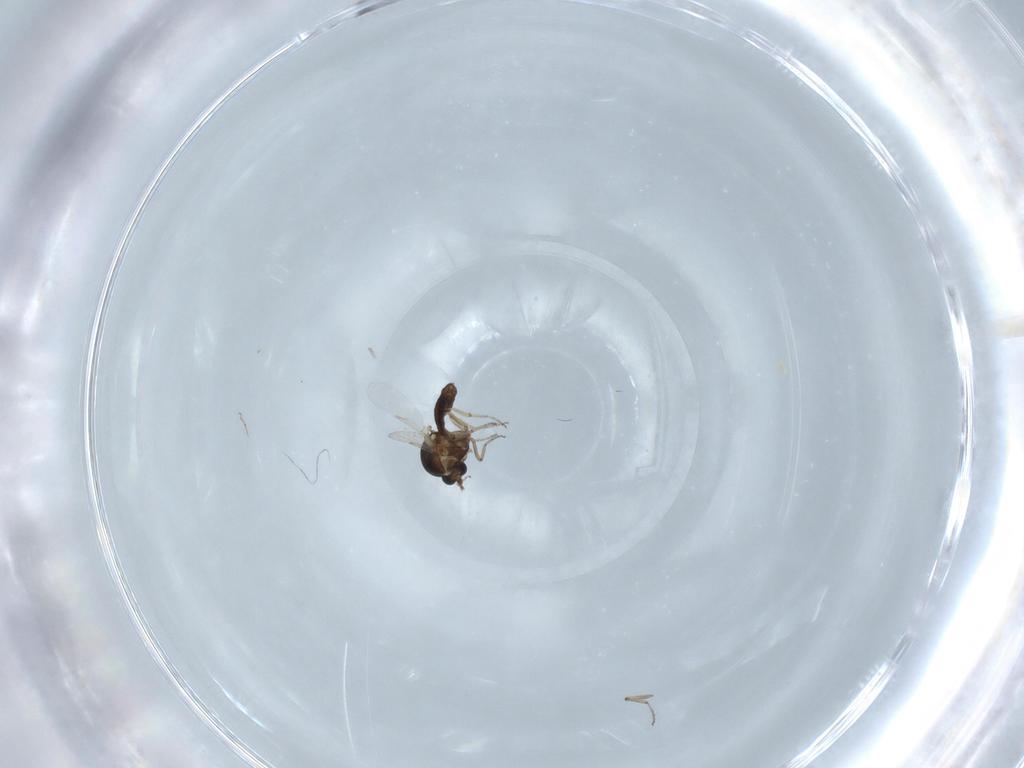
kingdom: Animalia
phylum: Arthropoda
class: Insecta
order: Diptera
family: Ceratopogonidae
